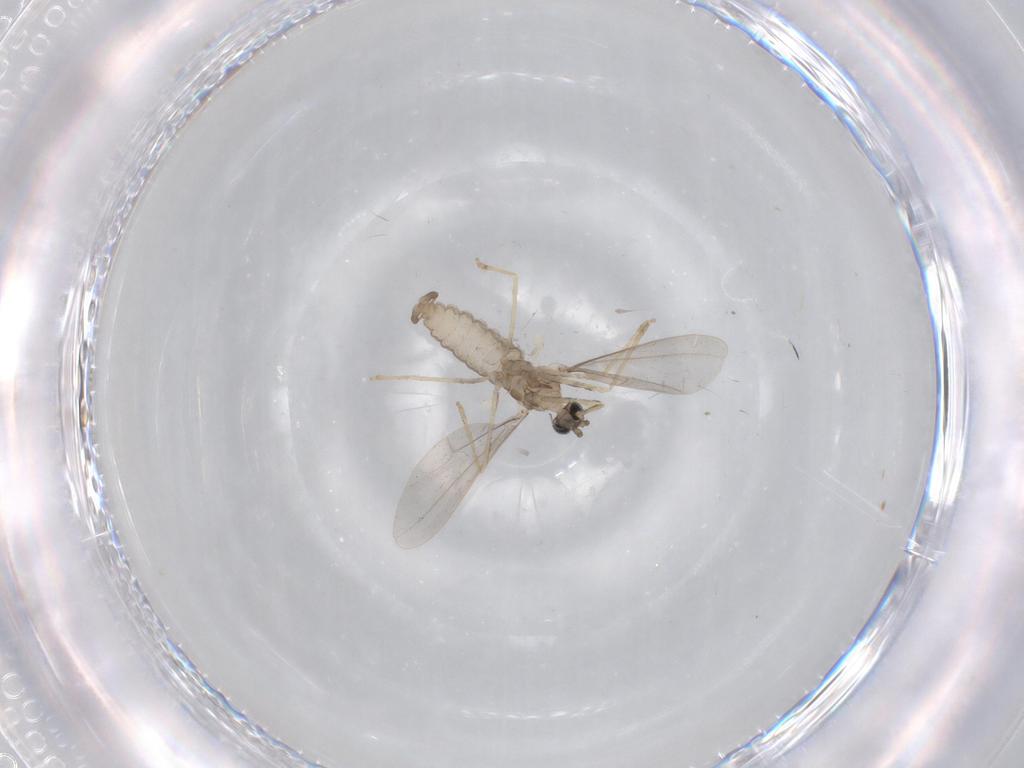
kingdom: Animalia
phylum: Arthropoda
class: Insecta
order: Diptera
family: Cecidomyiidae
